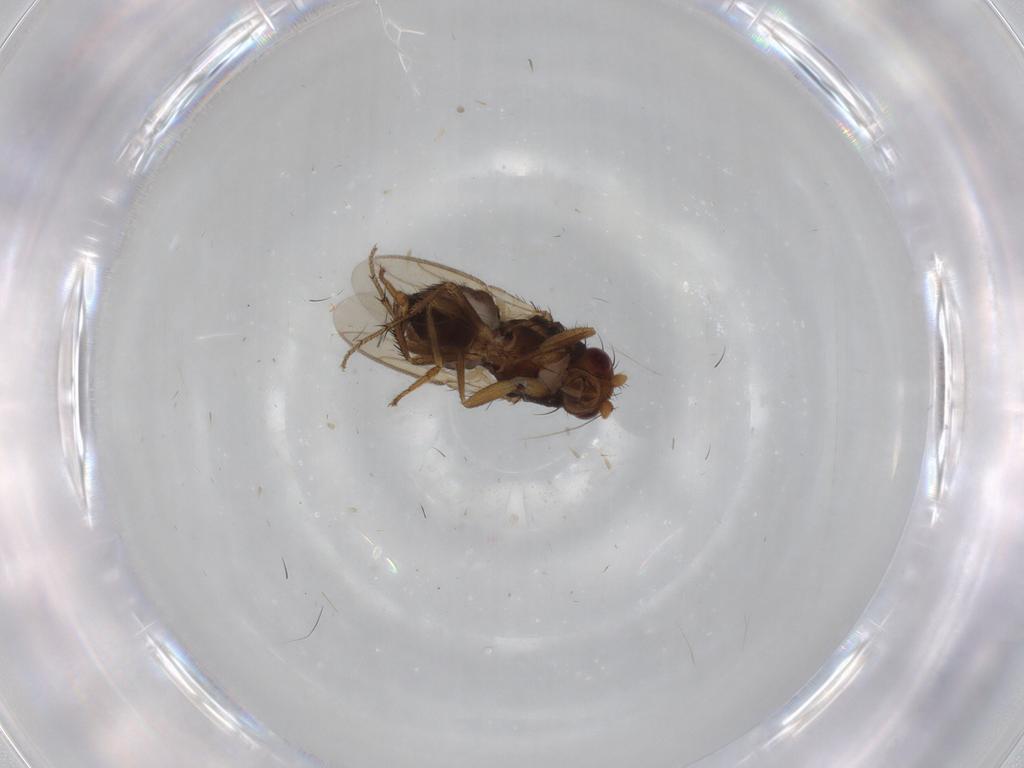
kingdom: Animalia
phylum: Arthropoda
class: Insecta
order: Diptera
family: Sphaeroceridae
